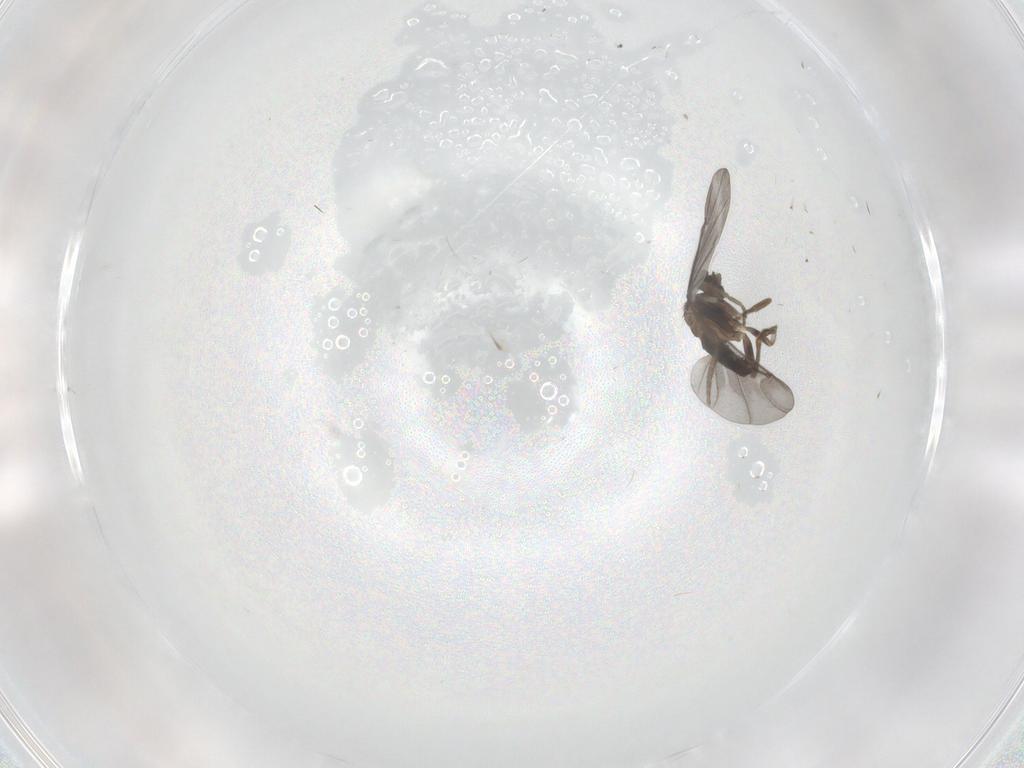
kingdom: Animalia
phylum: Arthropoda
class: Insecta
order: Diptera
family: Phoridae
